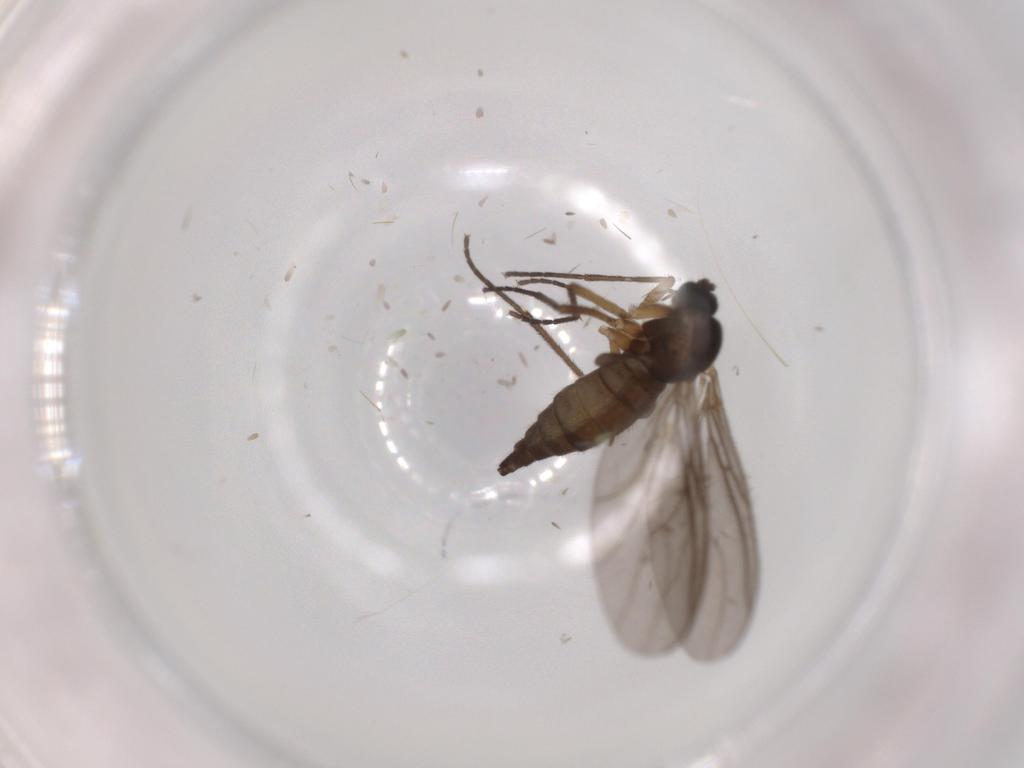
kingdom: Animalia
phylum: Arthropoda
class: Insecta
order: Diptera
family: Sciaridae
